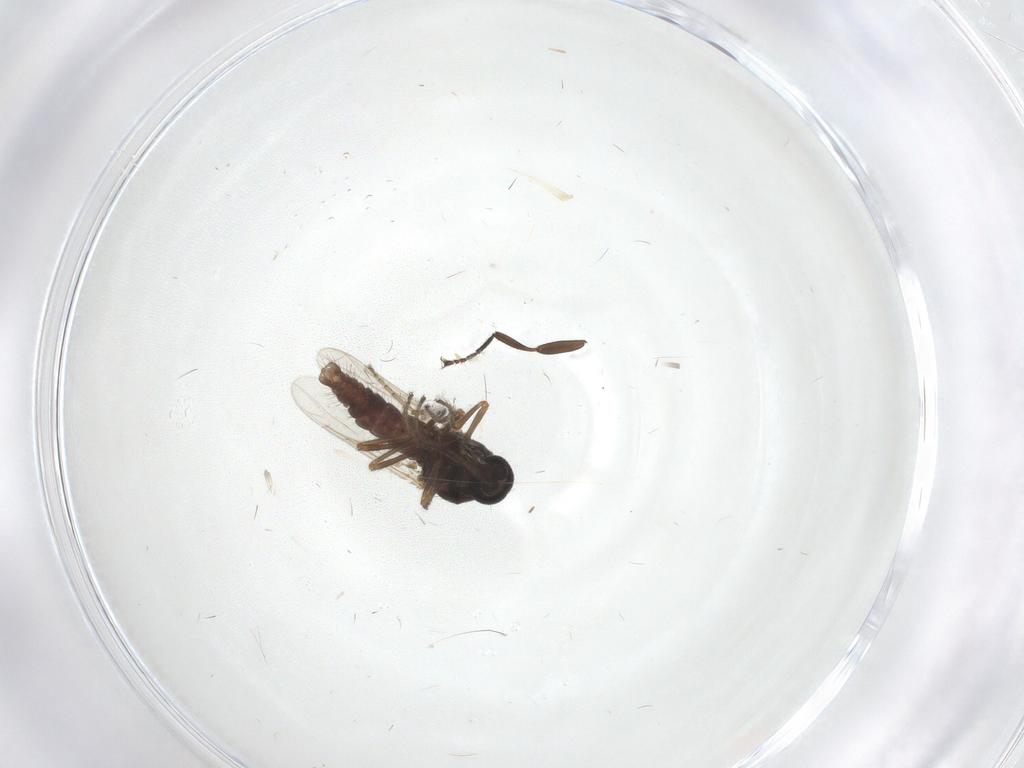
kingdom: Animalia
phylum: Arthropoda
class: Insecta
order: Diptera
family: Ceratopogonidae
